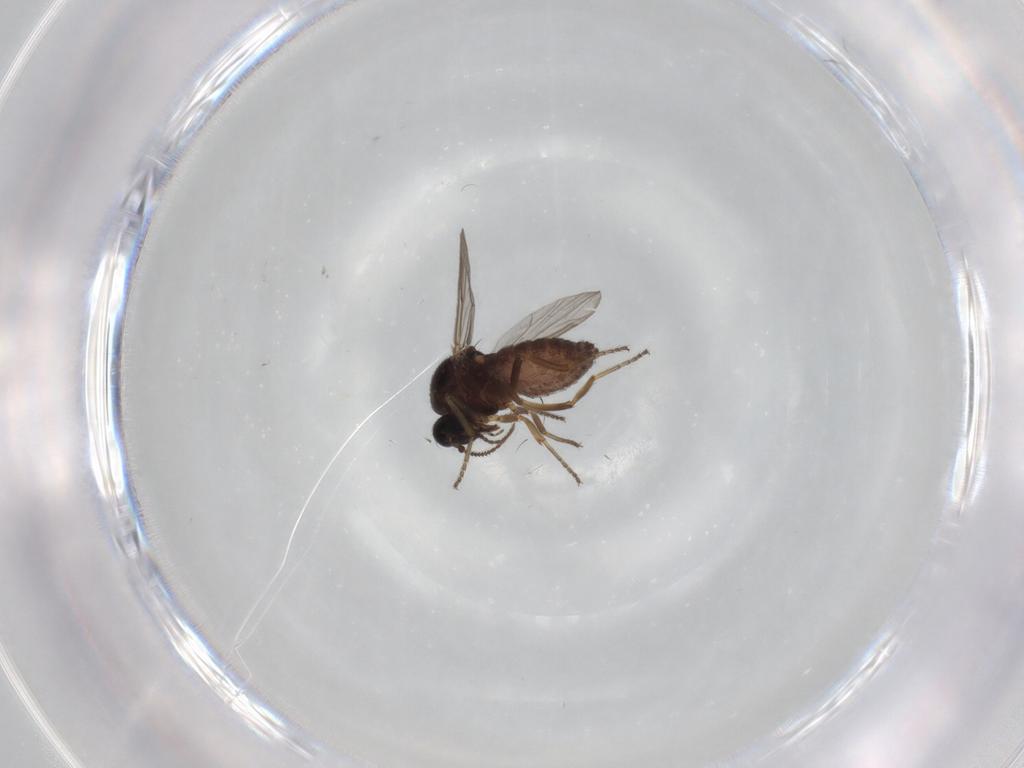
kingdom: Animalia
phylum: Arthropoda
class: Insecta
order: Diptera
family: Ceratopogonidae
